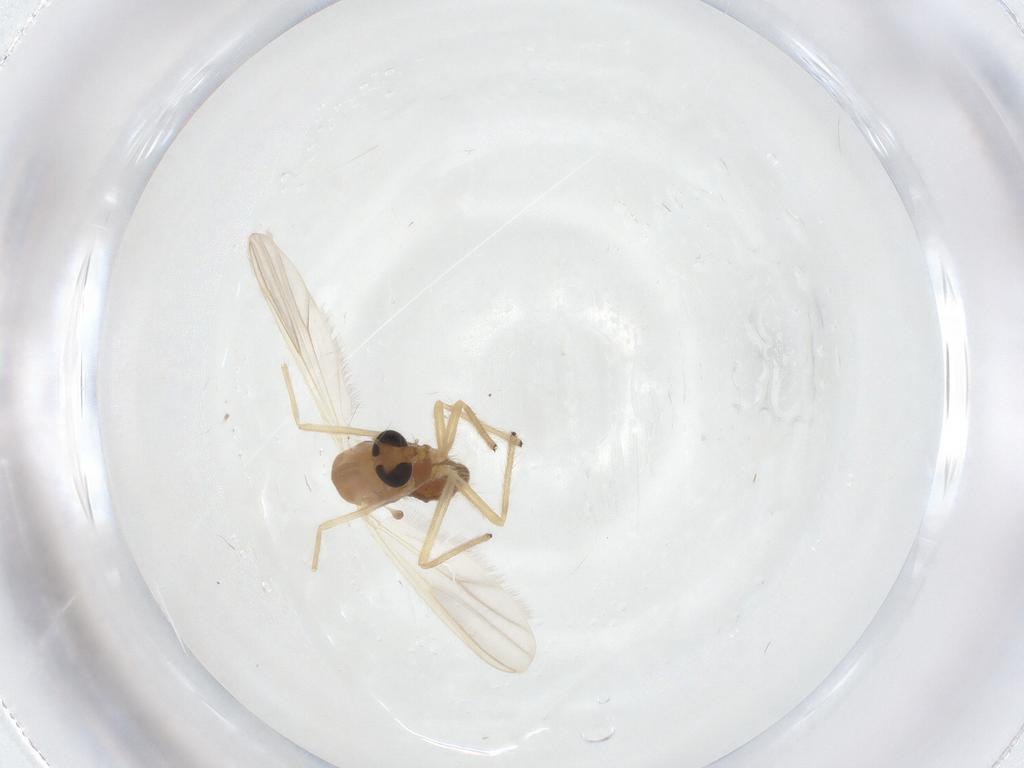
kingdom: Animalia
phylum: Arthropoda
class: Insecta
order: Diptera
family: Chironomidae
